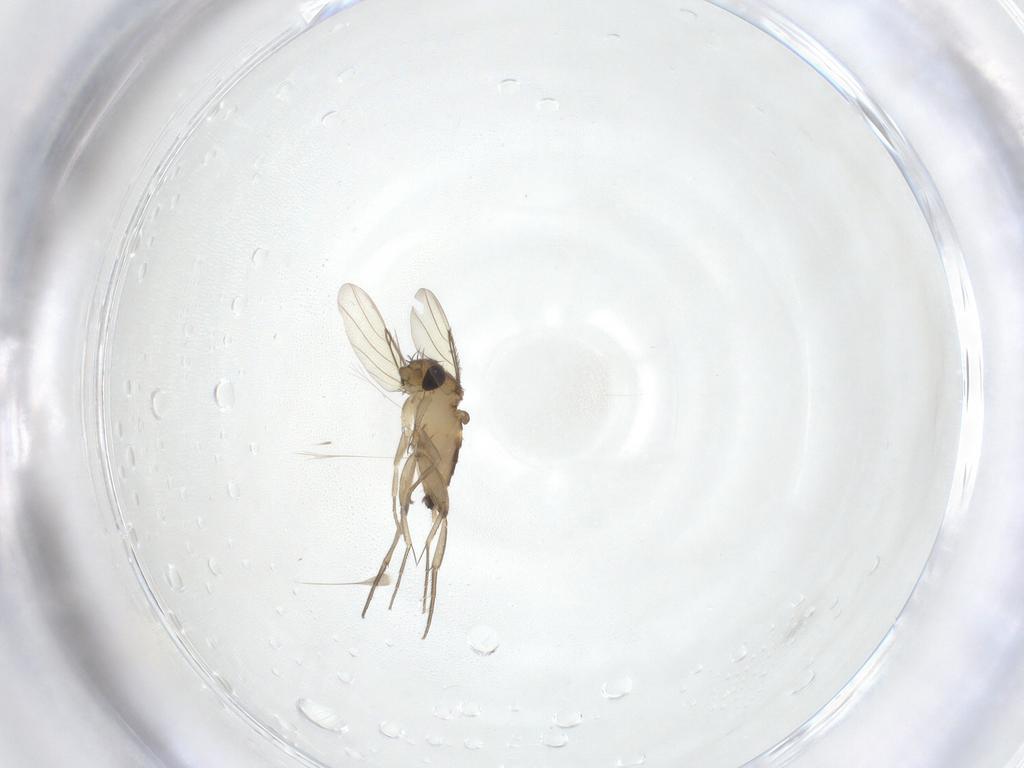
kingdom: Animalia
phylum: Arthropoda
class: Insecta
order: Diptera
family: Phoridae
